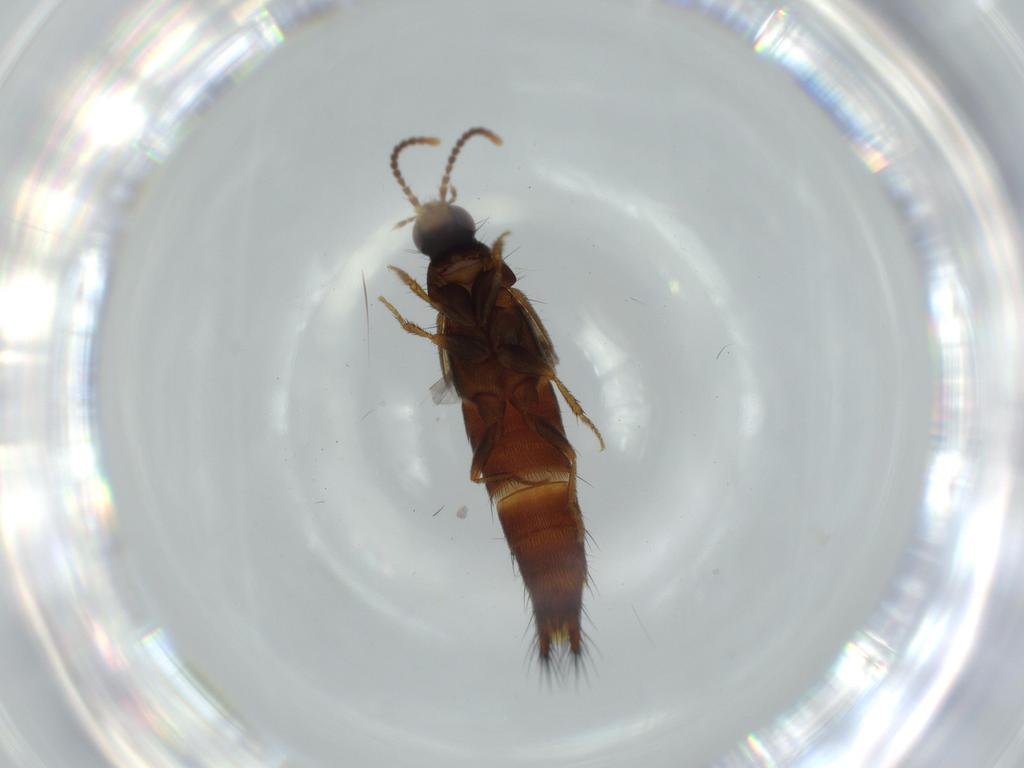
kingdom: Animalia
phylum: Arthropoda
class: Insecta
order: Coleoptera
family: Staphylinidae
